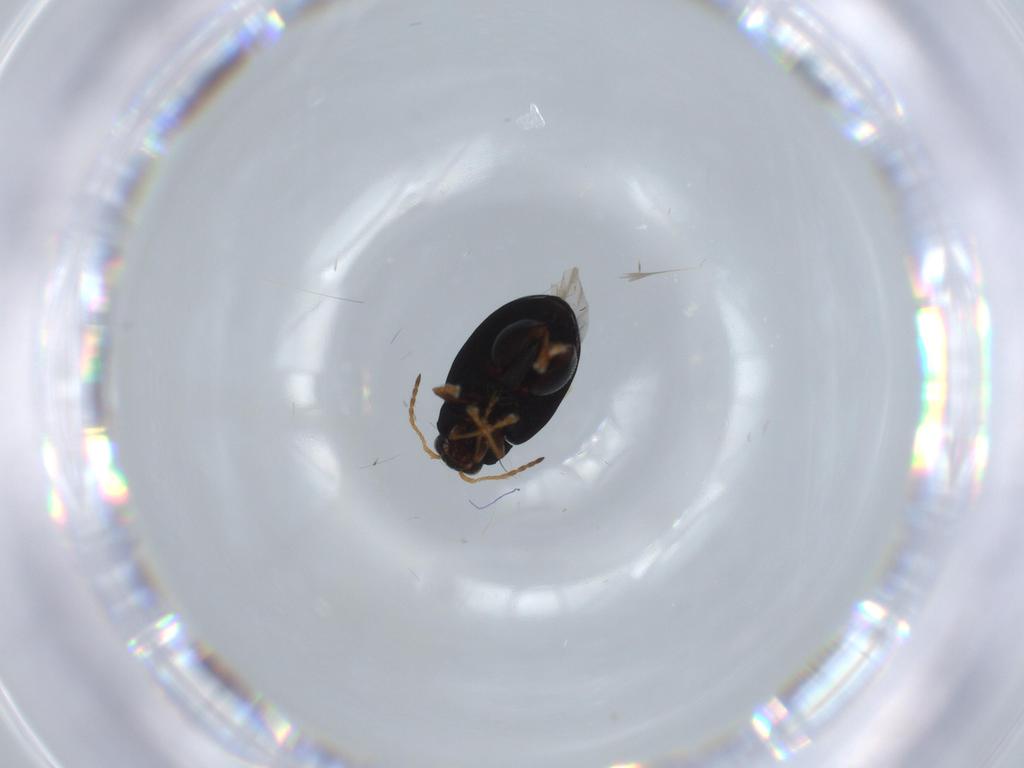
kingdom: Animalia
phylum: Arthropoda
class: Insecta
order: Coleoptera
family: Chrysomelidae
